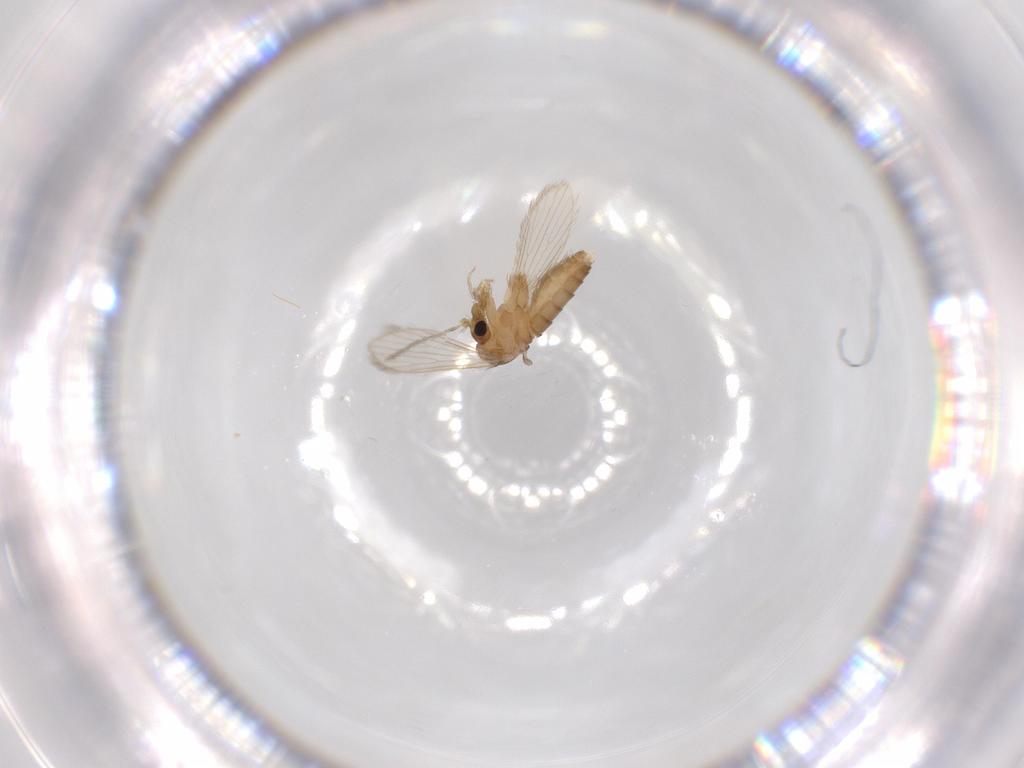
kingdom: Animalia
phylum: Arthropoda
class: Insecta
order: Diptera
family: Psychodidae
